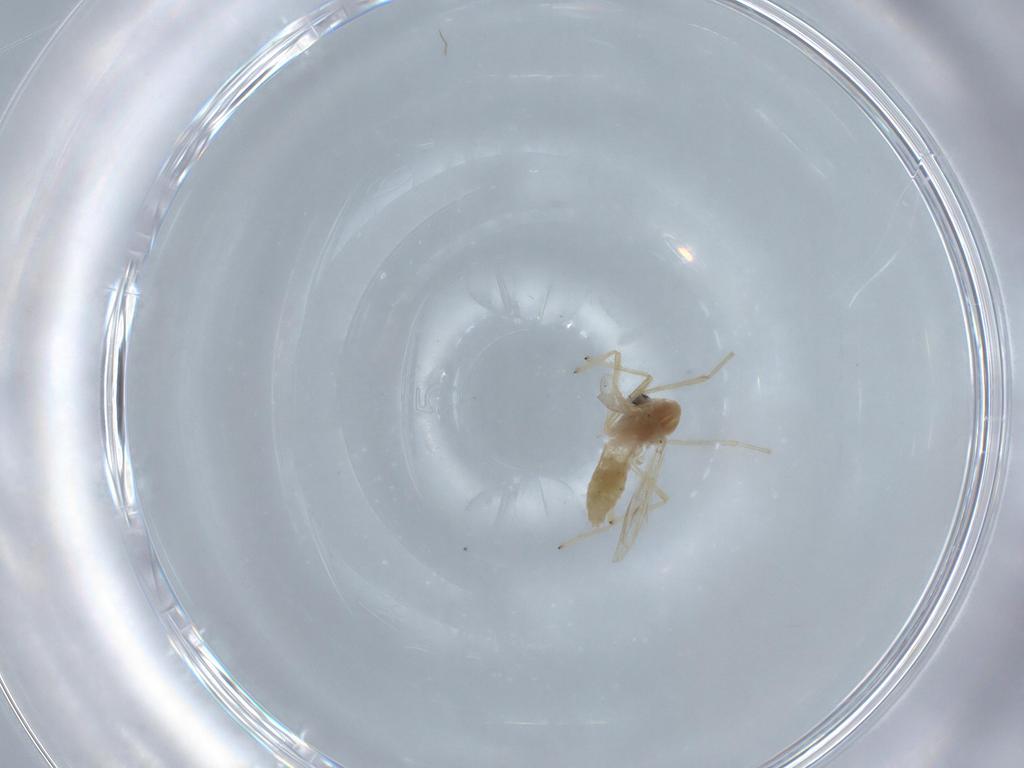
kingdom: Animalia
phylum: Arthropoda
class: Insecta
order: Diptera
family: Chironomidae
